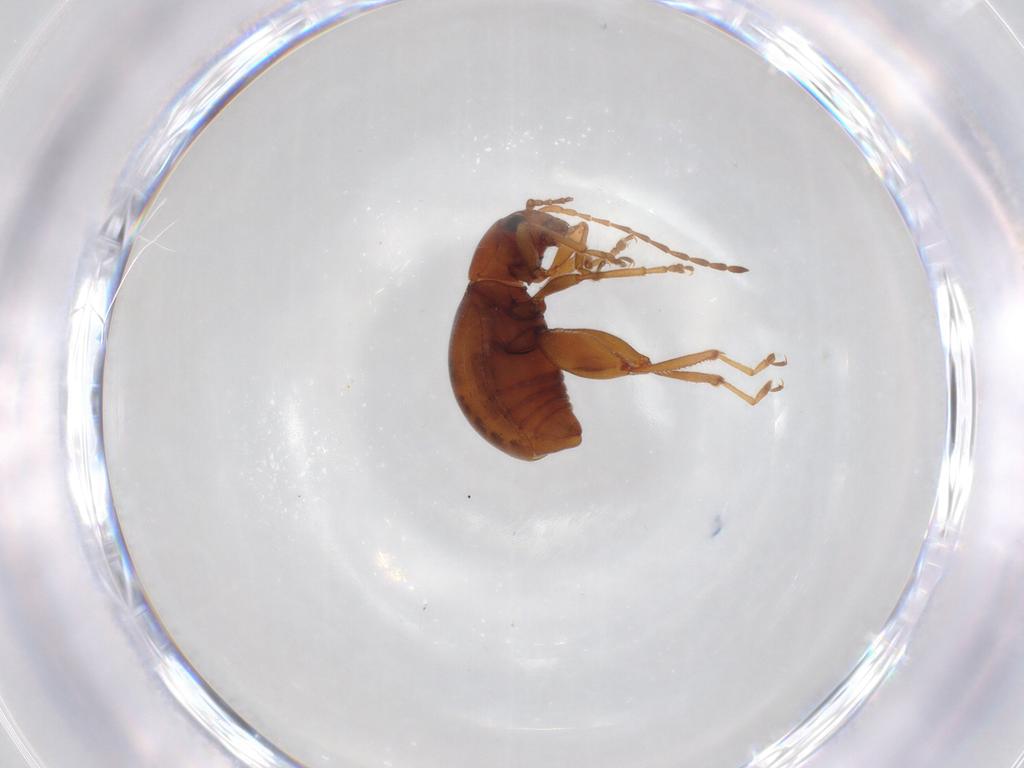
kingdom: Animalia
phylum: Arthropoda
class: Insecta
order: Coleoptera
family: Chrysomelidae
